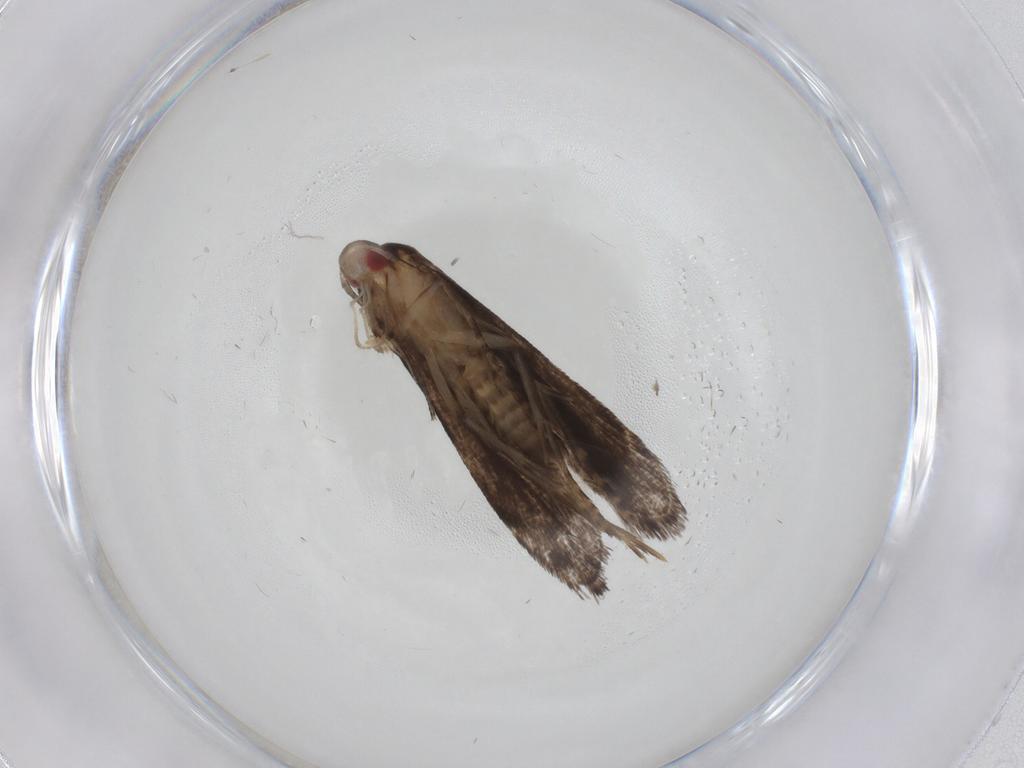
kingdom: Animalia
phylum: Arthropoda
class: Insecta
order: Lepidoptera
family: Gelechiidae
